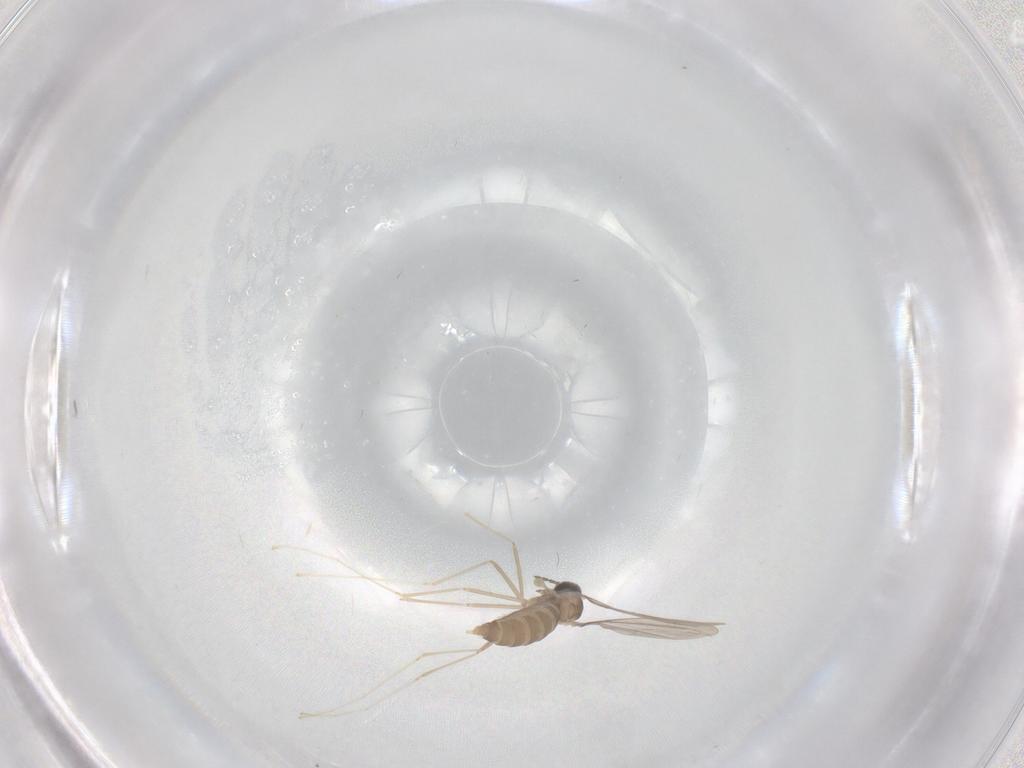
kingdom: Animalia
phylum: Arthropoda
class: Insecta
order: Diptera
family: Cecidomyiidae
